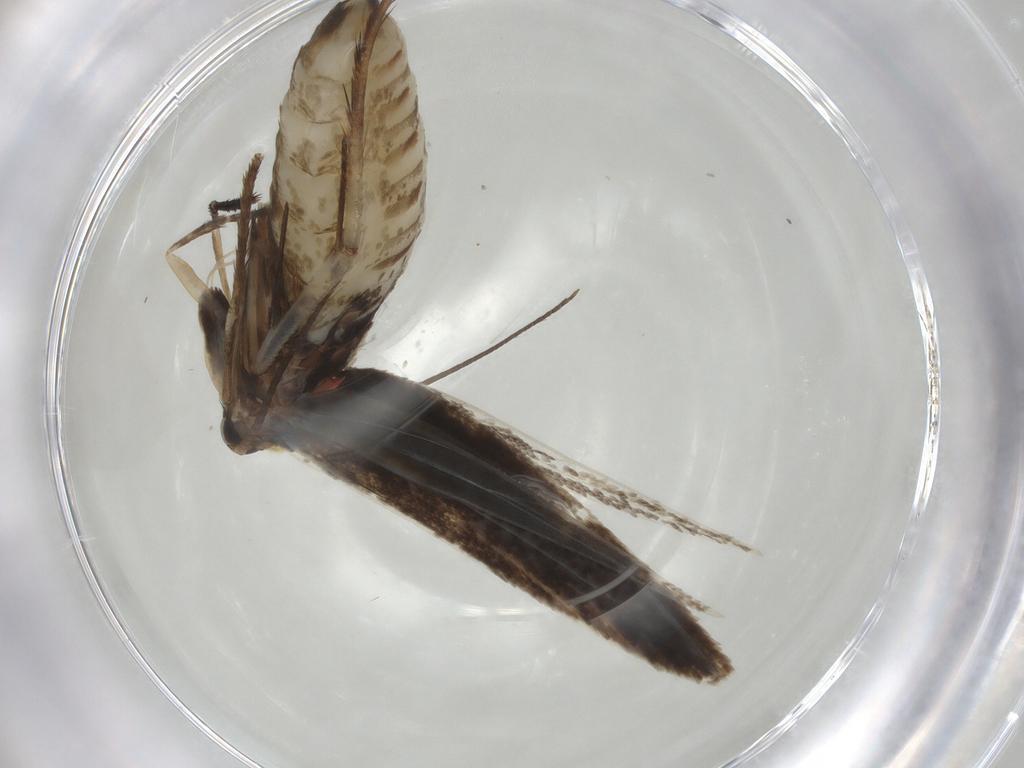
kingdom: Animalia
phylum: Arthropoda
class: Insecta
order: Lepidoptera
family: Epermeniidae
